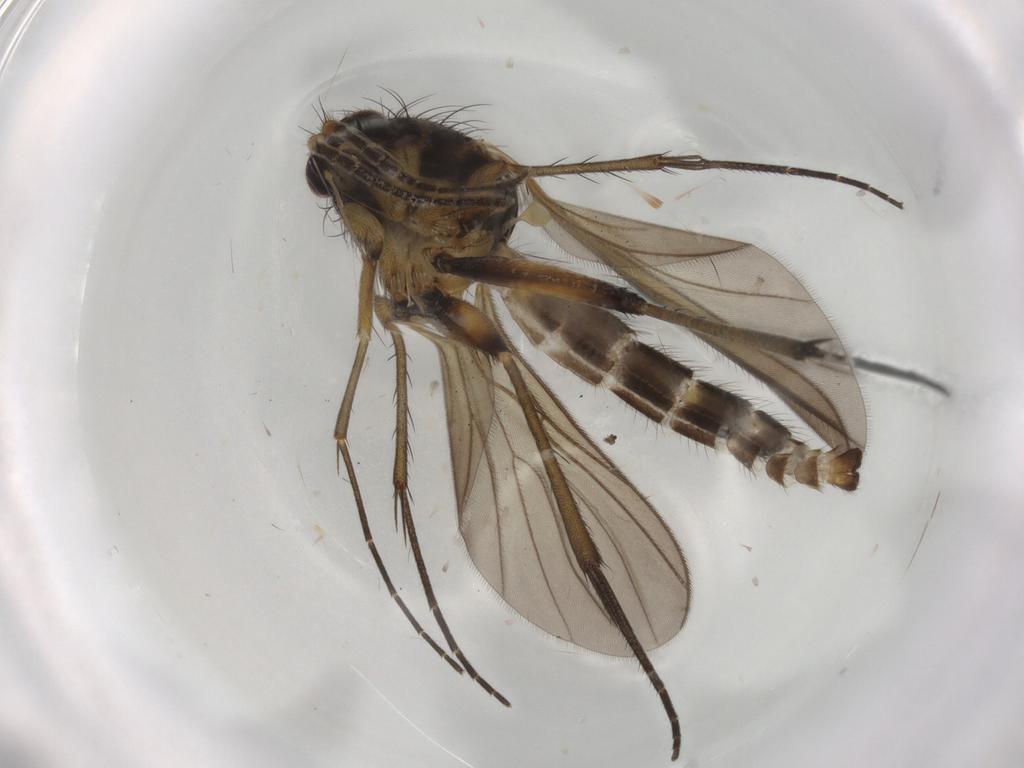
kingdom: Animalia
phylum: Arthropoda
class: Insecta
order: Diptera
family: Mycetophilidae
